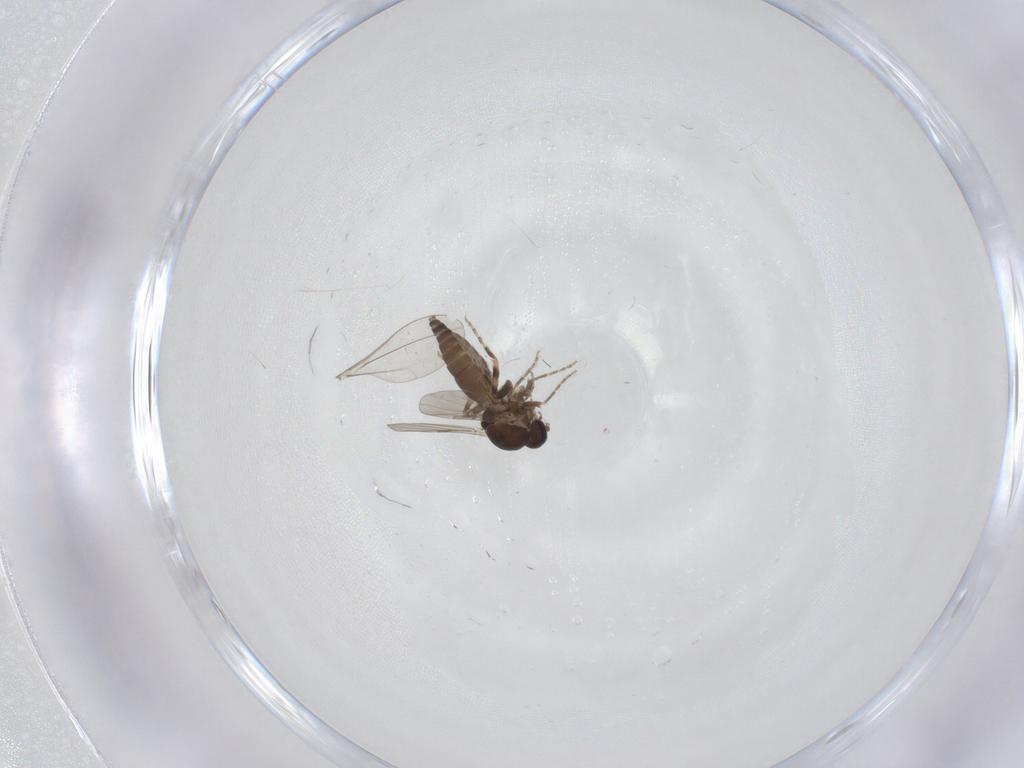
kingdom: Animalia
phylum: Arthropoda
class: Insecta
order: Diptera
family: Ceratopogonidae
